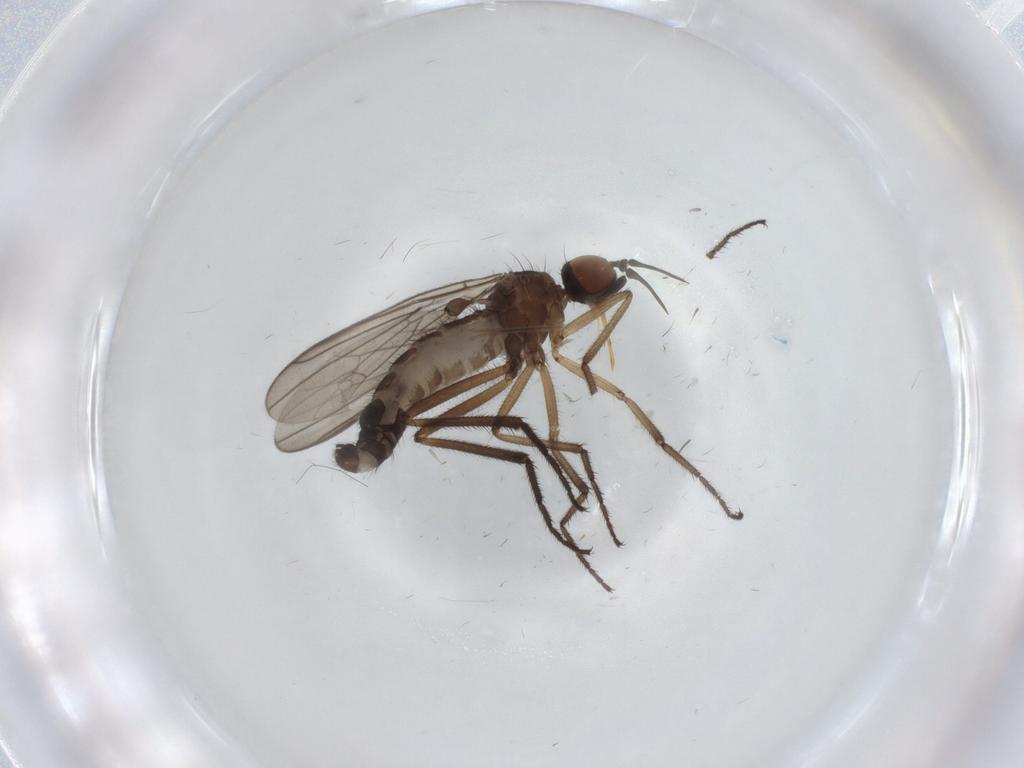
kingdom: Animalia
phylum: Arthropoda
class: Insecta
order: Diptera
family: Empididae
